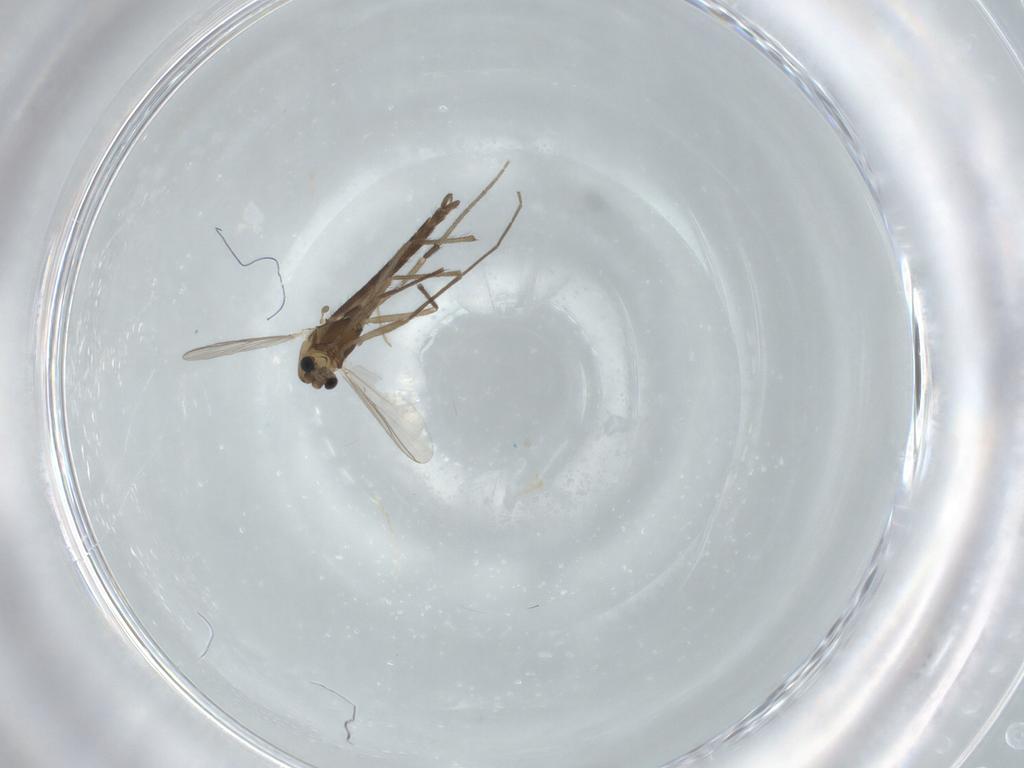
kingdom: Animalia
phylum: Arthropoda
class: Insecta
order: Diptera
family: Chironomidae
